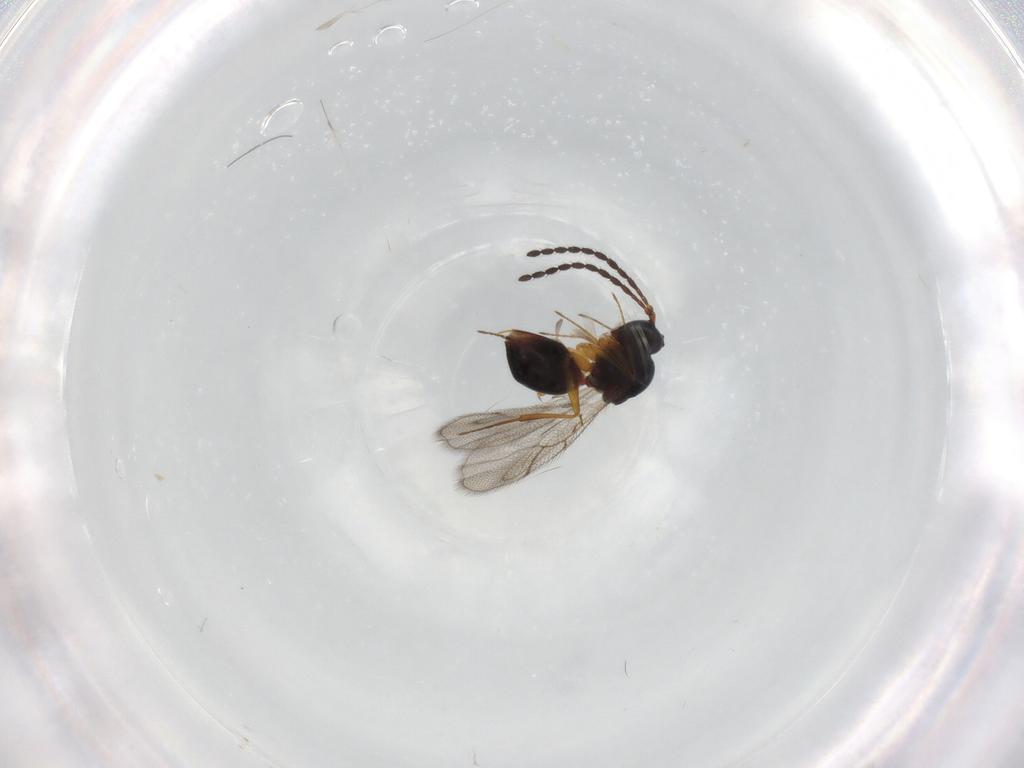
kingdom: Animalia
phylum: Arthropoda
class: Insecta
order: Hymenoptera
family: Figitidae
